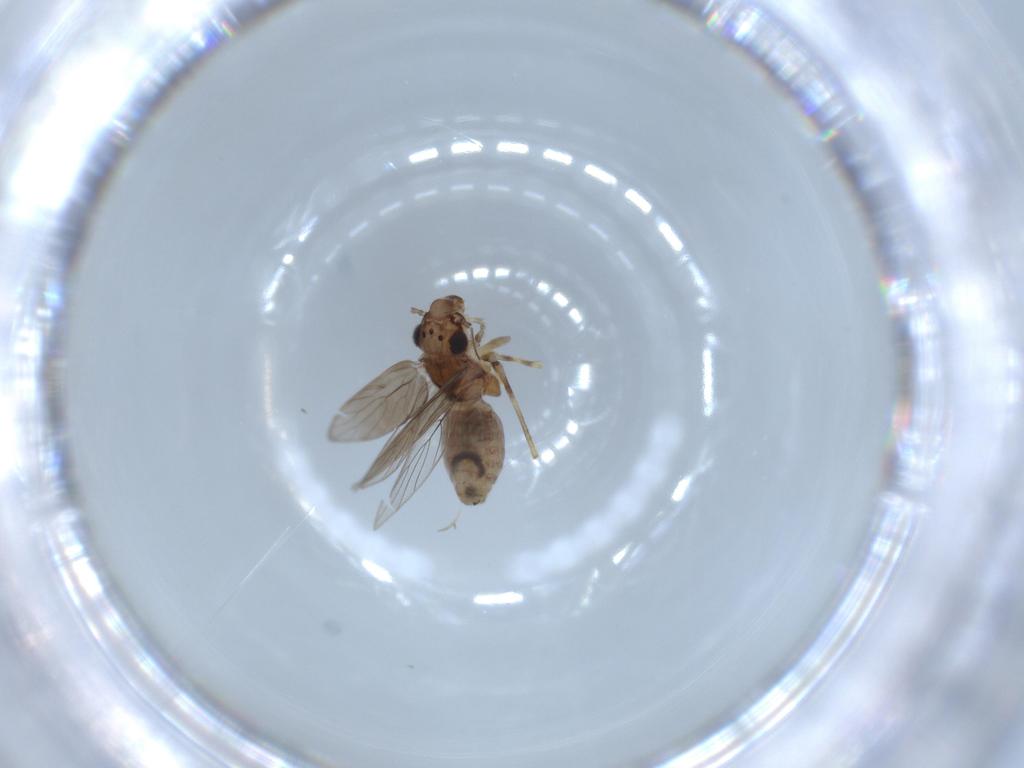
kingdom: Animalia
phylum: Arthropoda
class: Insecta
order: Psocodea
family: Lepidopsocidae
